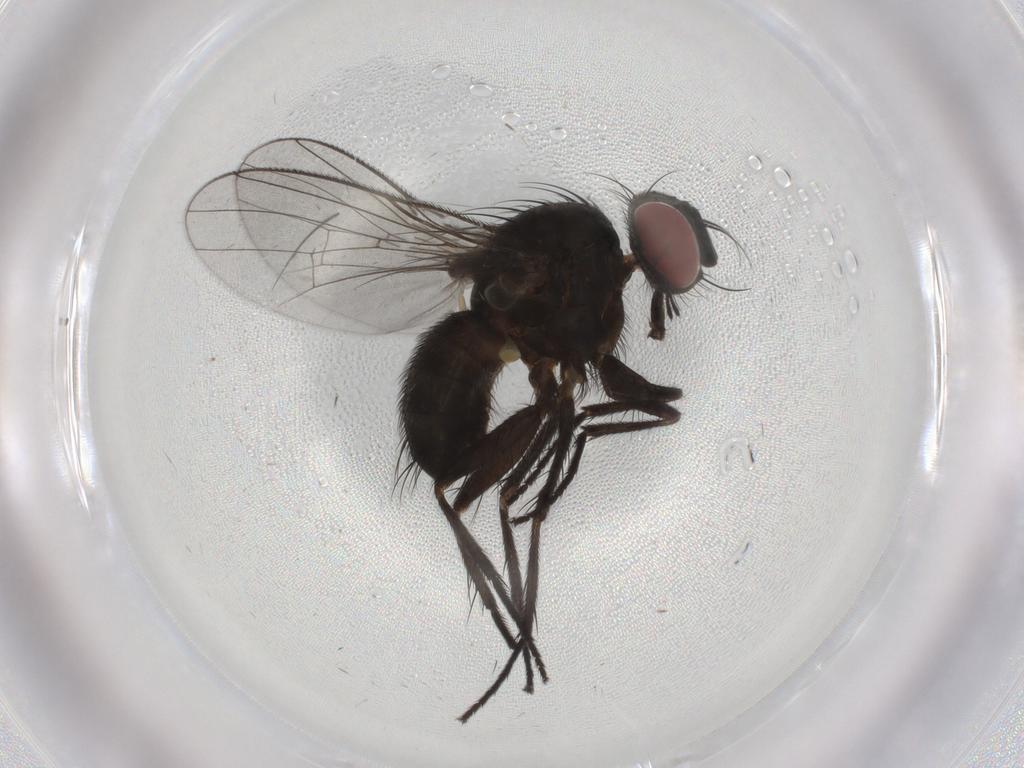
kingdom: Animalia
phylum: Arthropoda
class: Insecta
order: Diptera
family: Muscidae
